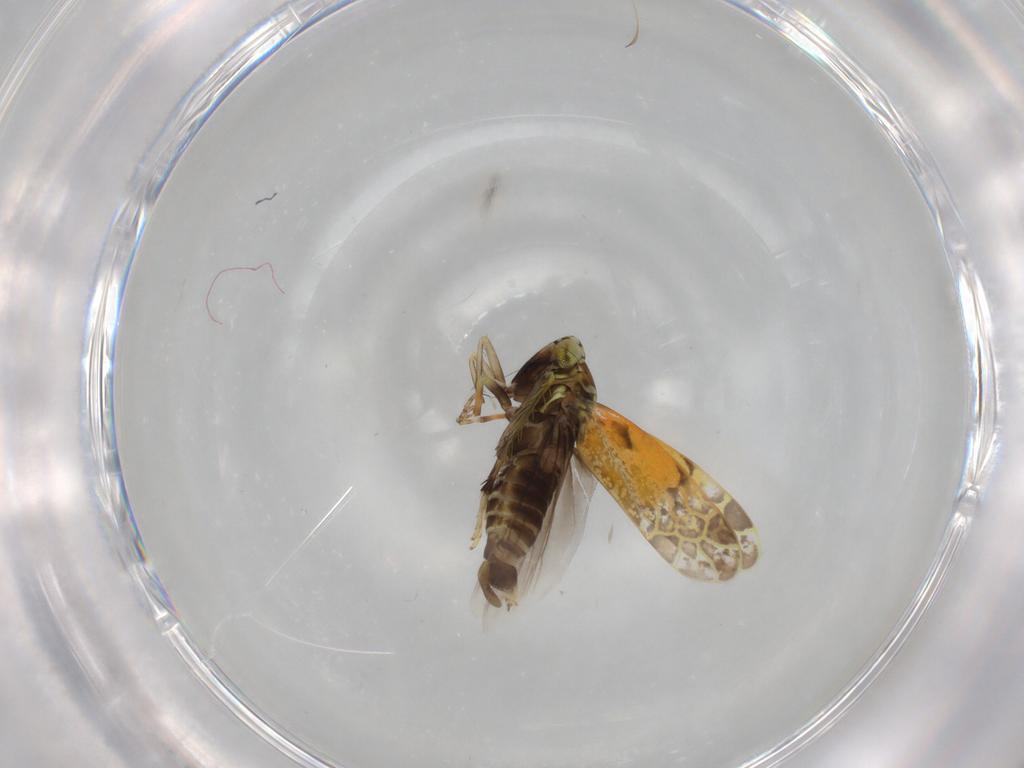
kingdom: Animalia
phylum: Arthropoda
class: Insecta
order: Hemiptera
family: Cicadellidae
